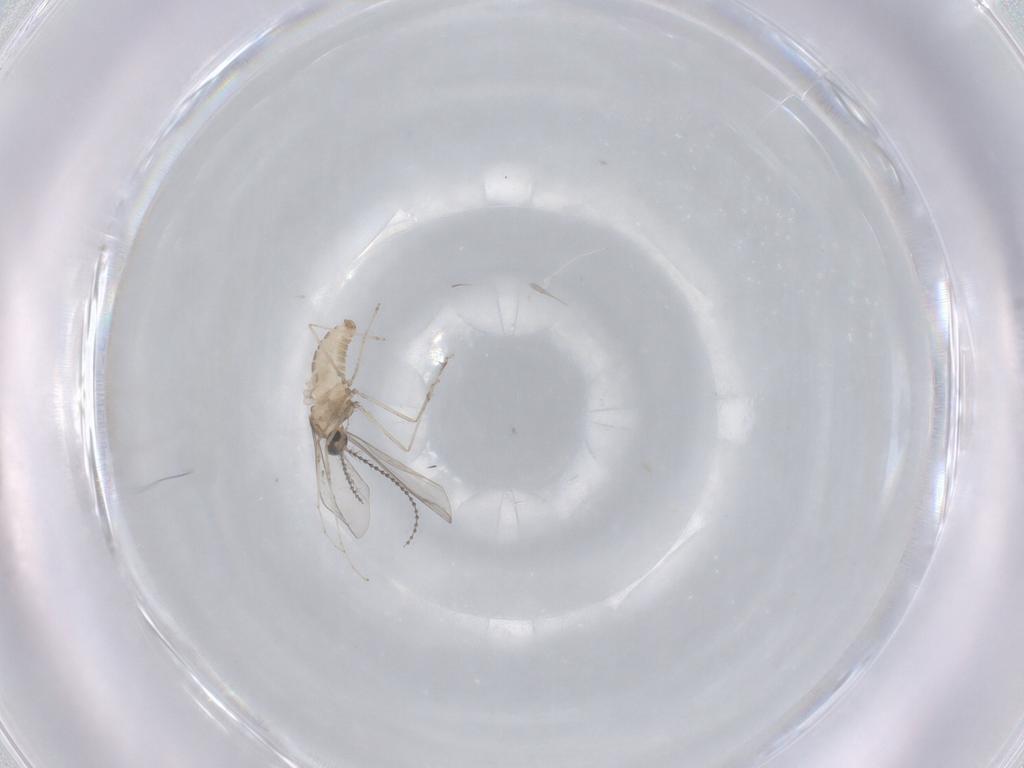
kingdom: Animalia
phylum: Arthropoda
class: Insecta
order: Diptera
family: Cecidomyiidae
